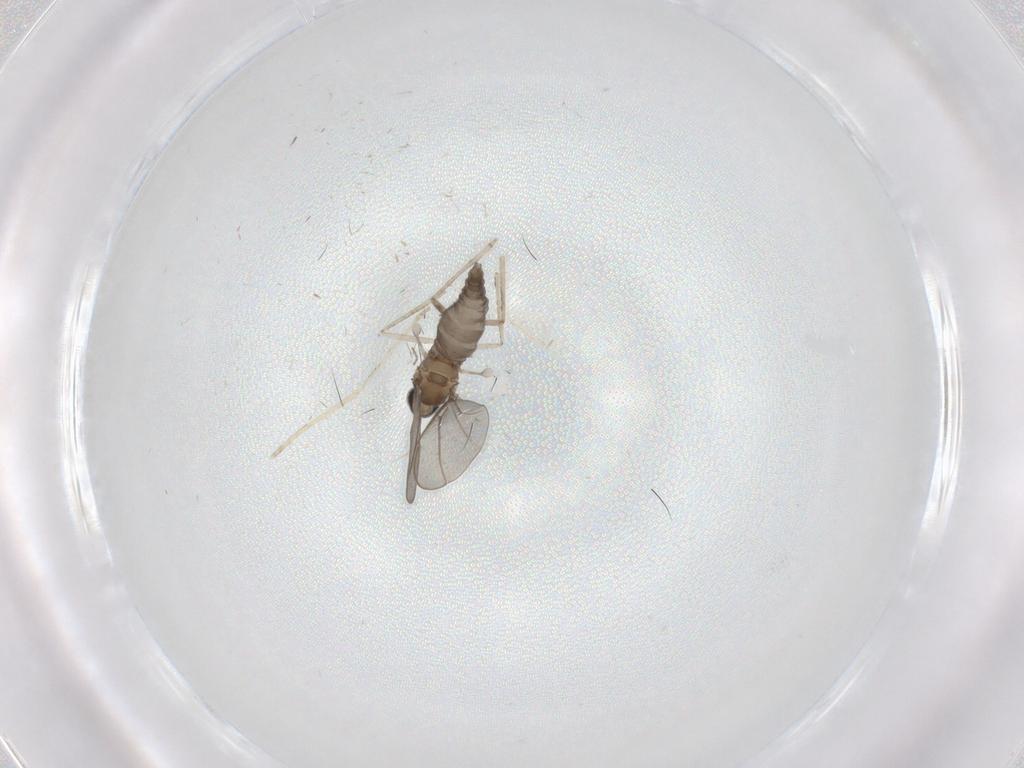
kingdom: Animalia
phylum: Arthropoda
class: Insecta
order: Diptera
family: Cecidomyiidae
